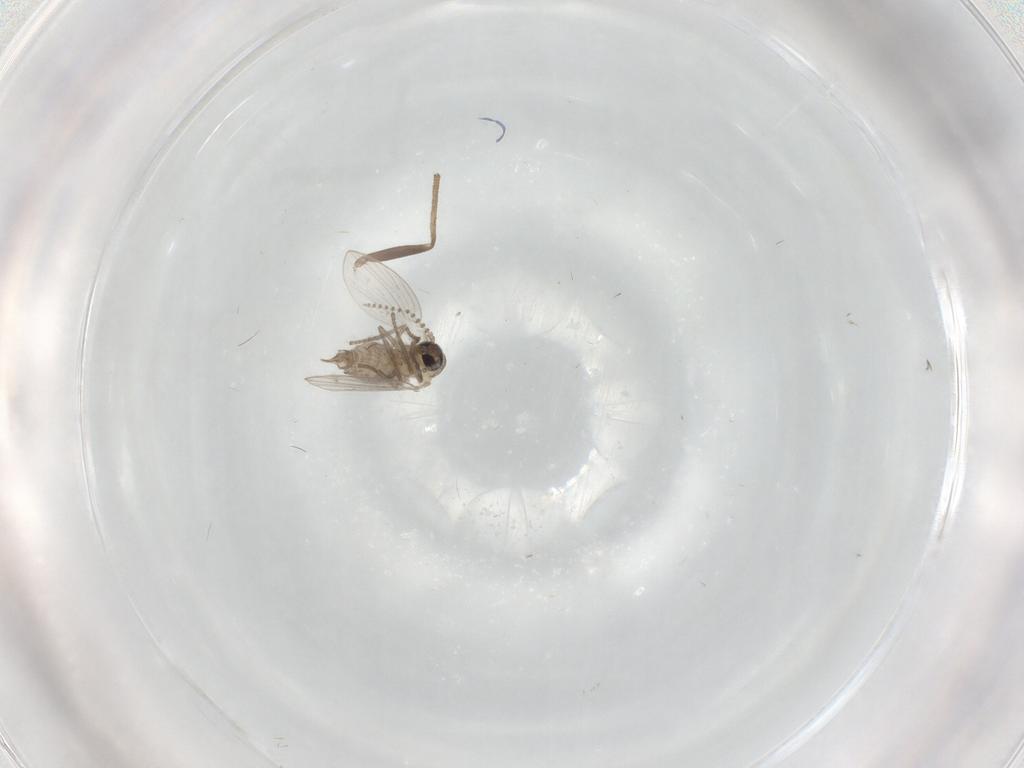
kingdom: Animalia
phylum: Arthropoda
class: Insecta
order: Diptera
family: Psychodidae
